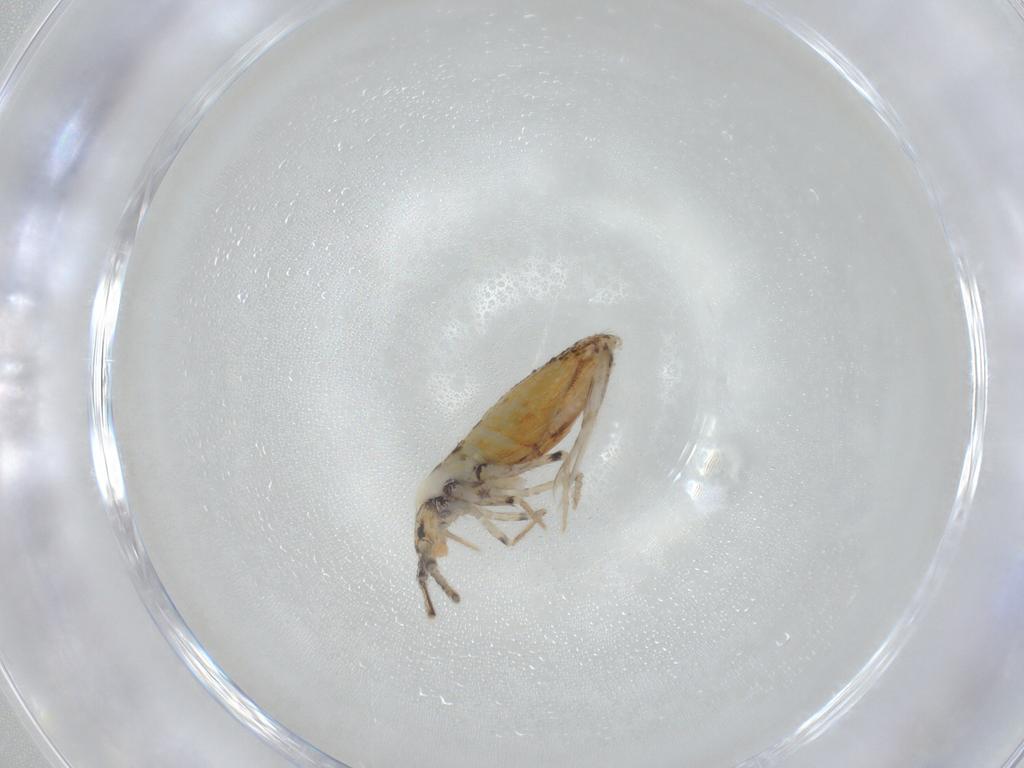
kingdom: Animalia
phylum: Arthropoda
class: Collembola
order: Entomobryomorpha
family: Entomobryidae
